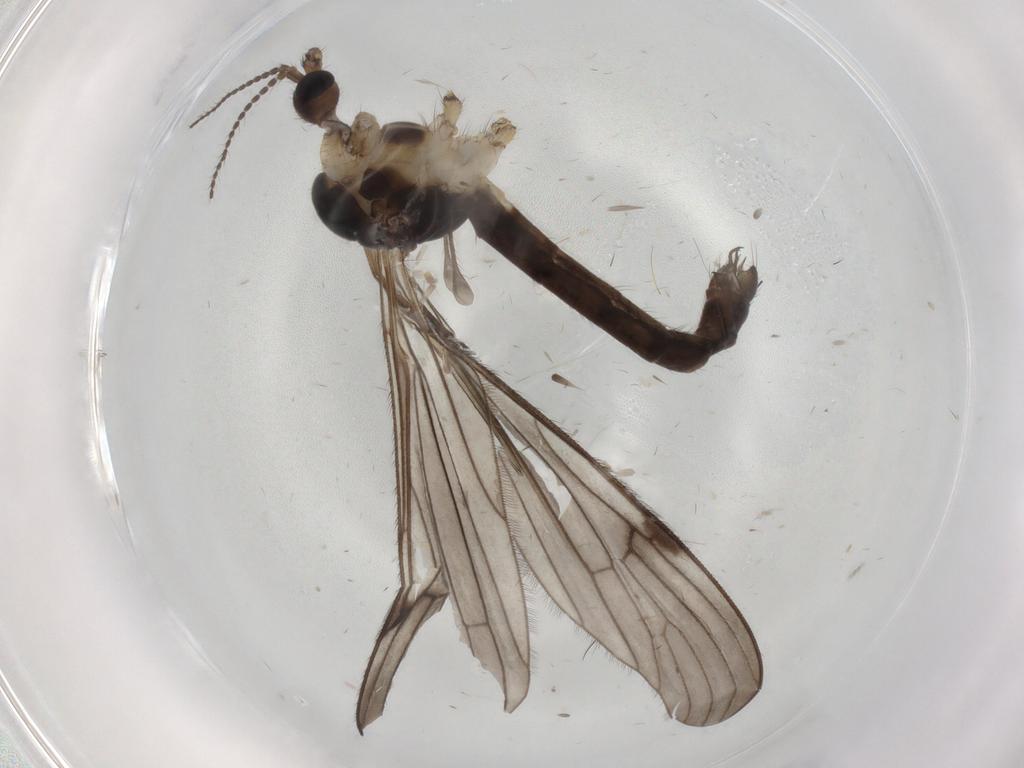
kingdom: Animalia
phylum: Arthropoda
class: Insecta
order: Diptera
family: Limoniidae
